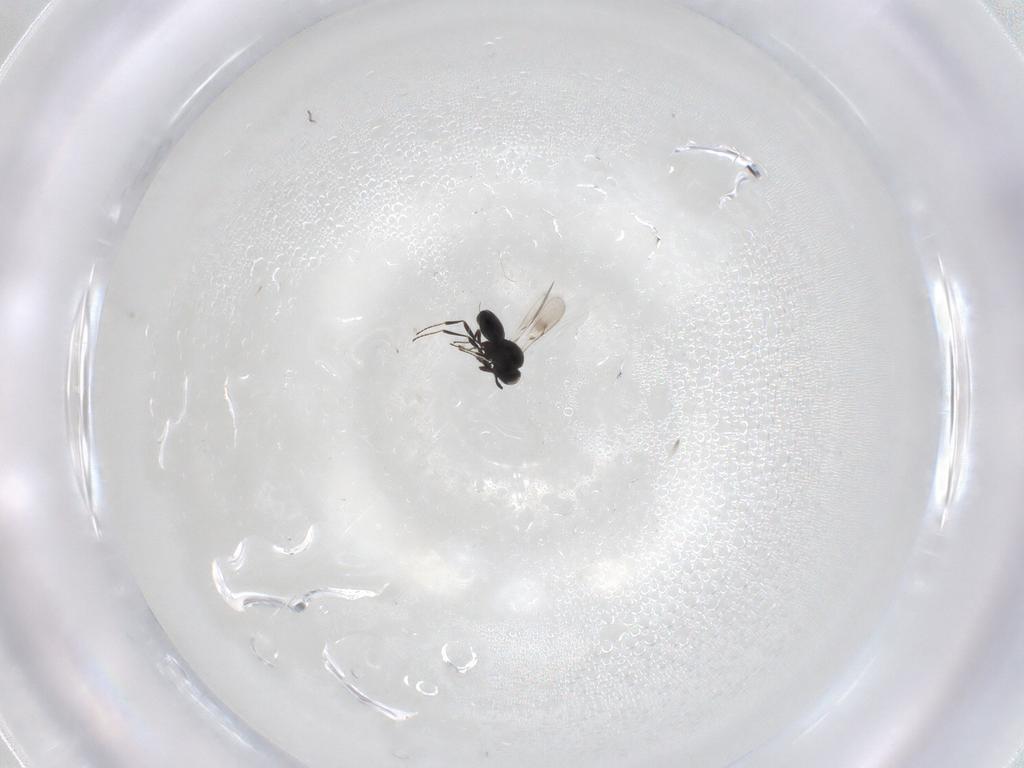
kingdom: Animalia
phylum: Arthropoda
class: Insecta
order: Hymenoptera
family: Scelionidae
